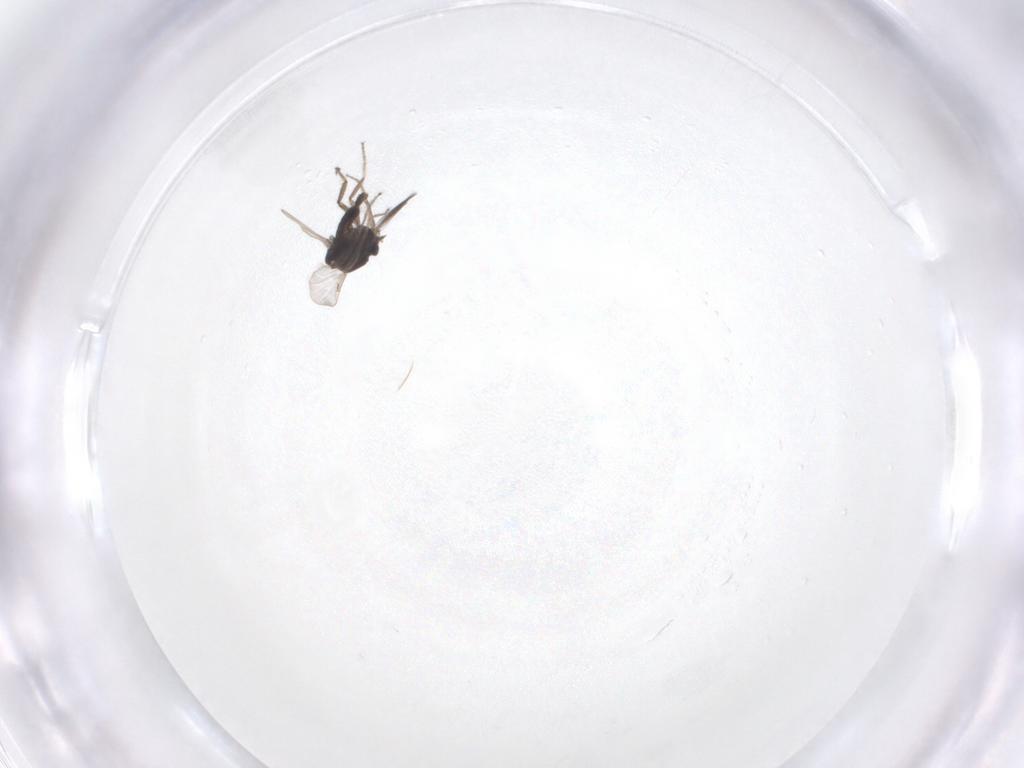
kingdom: Animalia
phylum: Arthropoda
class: Insecta
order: Diptera
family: Ceratopogonidae
